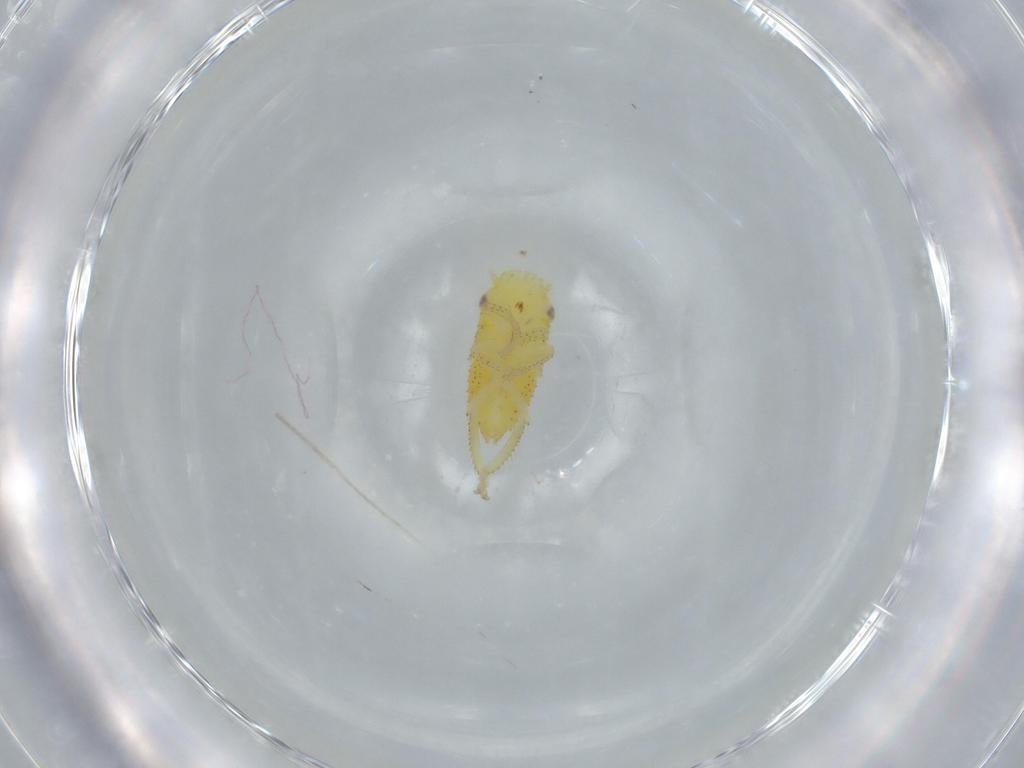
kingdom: Animalia
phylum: Arthropoda
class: Insecta
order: Hemiptera
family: Cicadellidae
